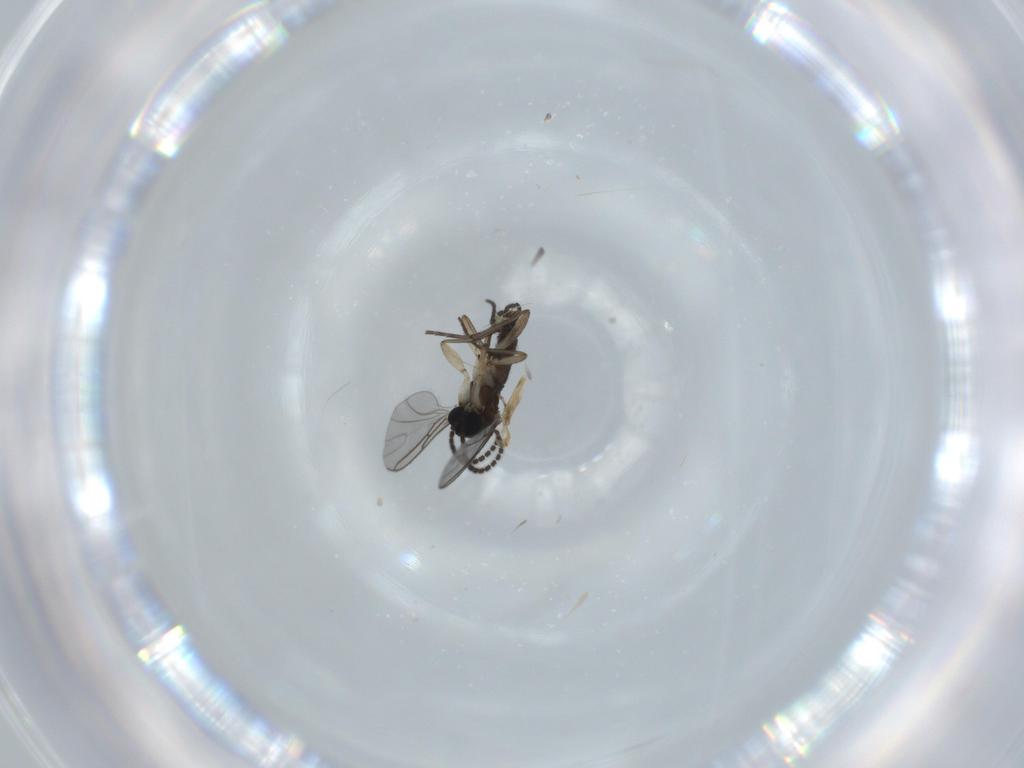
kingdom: Animalia
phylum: Arthropoda
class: Insecta
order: Diptera
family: Sciaridae
